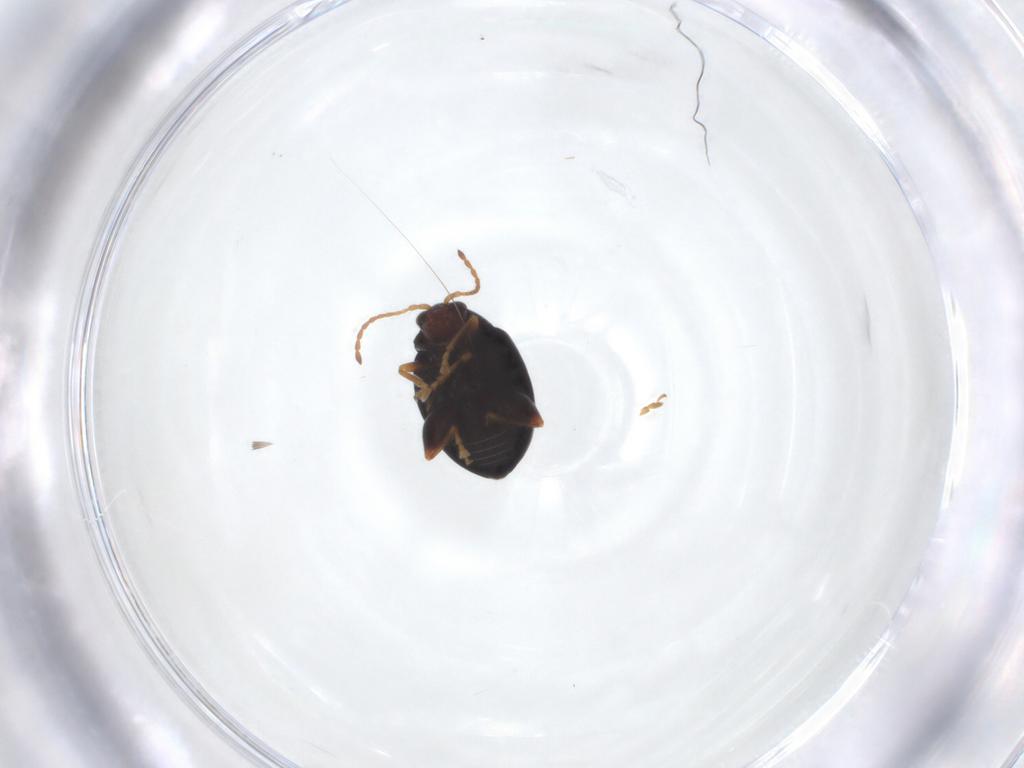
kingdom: Animalia
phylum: Arthropoda
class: Insecta
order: Coleoptera
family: Chrysomelidae
